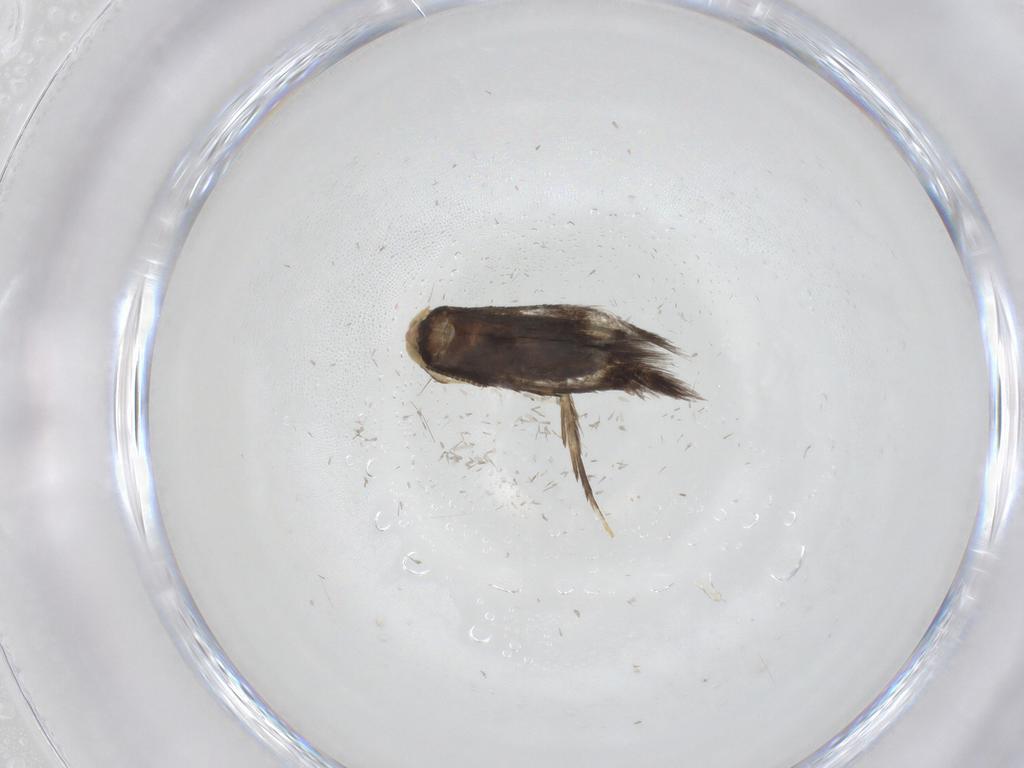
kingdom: Animalia
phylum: Arthropoda
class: Insecta
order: Lepidoptera
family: Nepticulidae
